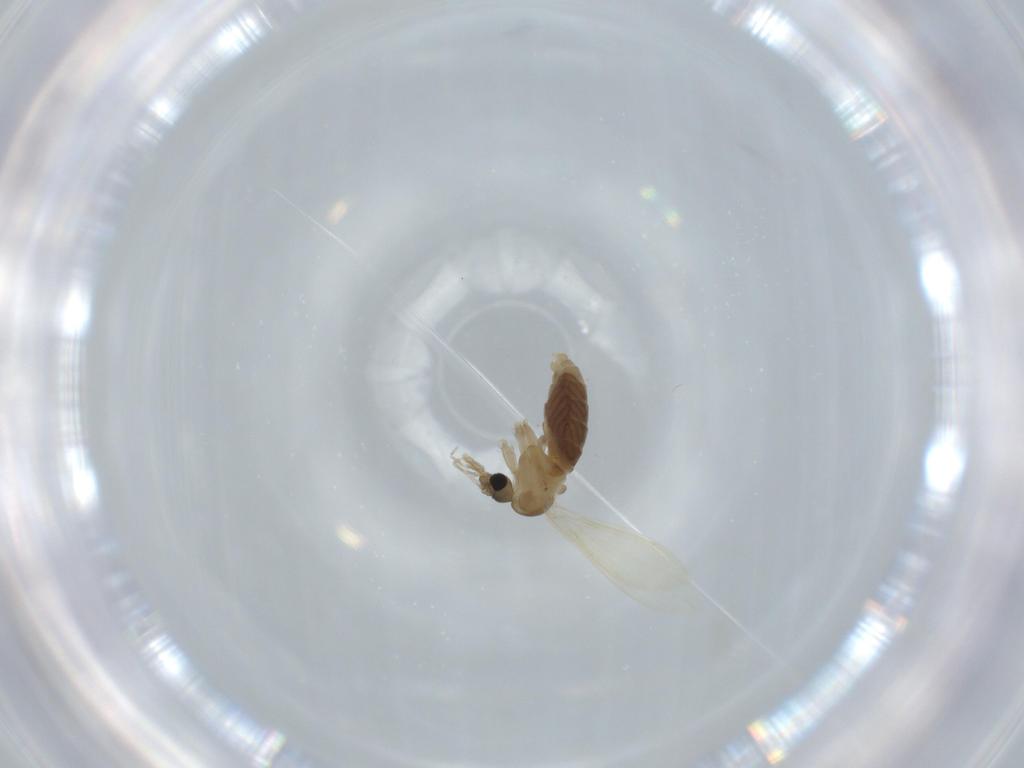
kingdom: Animalia
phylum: Arthropoda
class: Insecta
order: Diptera
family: Psychodidae
